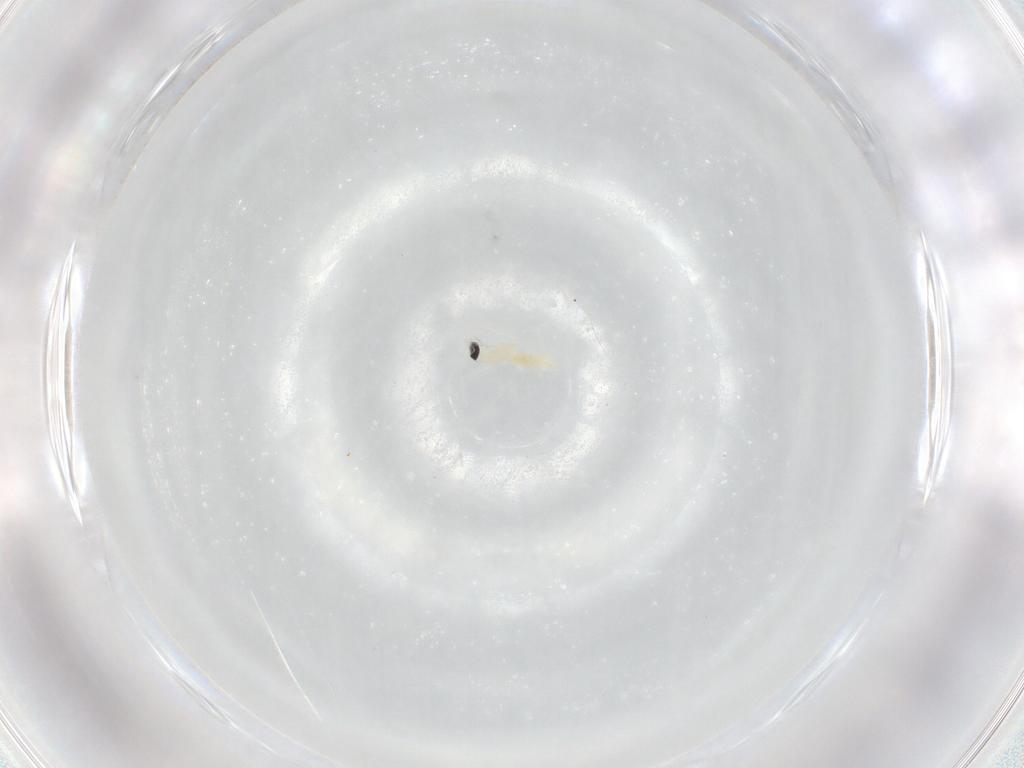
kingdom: Animalia
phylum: Arthropoda
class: Insecta
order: Diptera
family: Cecidomyiidae
